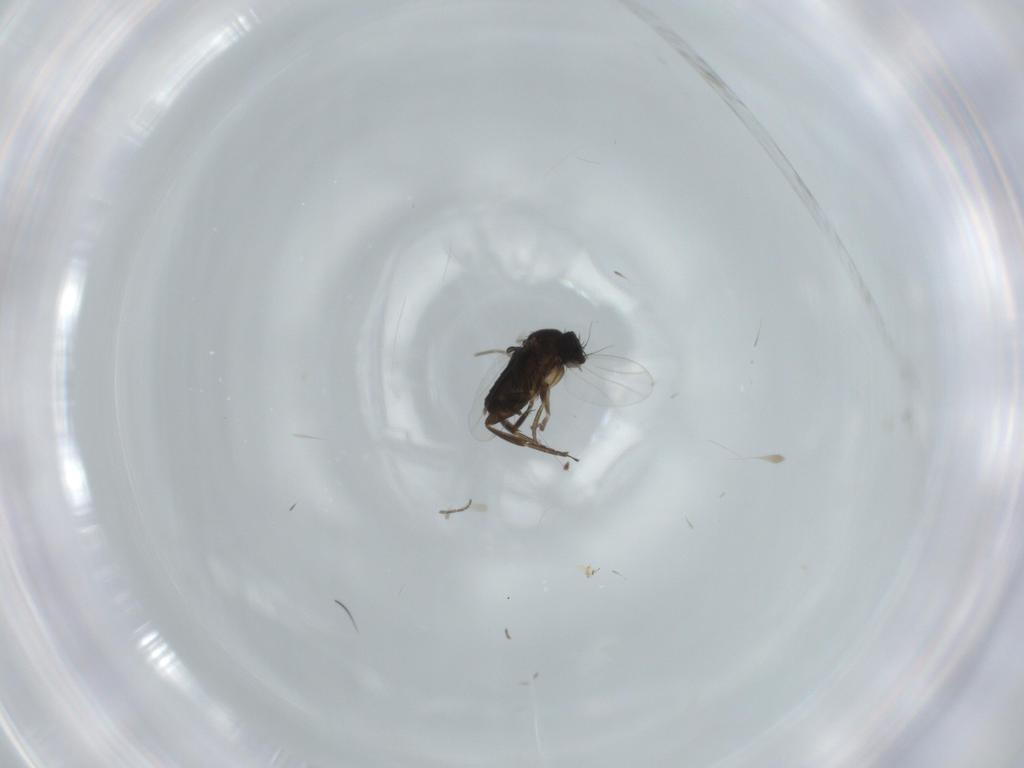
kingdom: Animalia
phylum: Arthropoda
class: Insecta
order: Diptera
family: Phoridae
